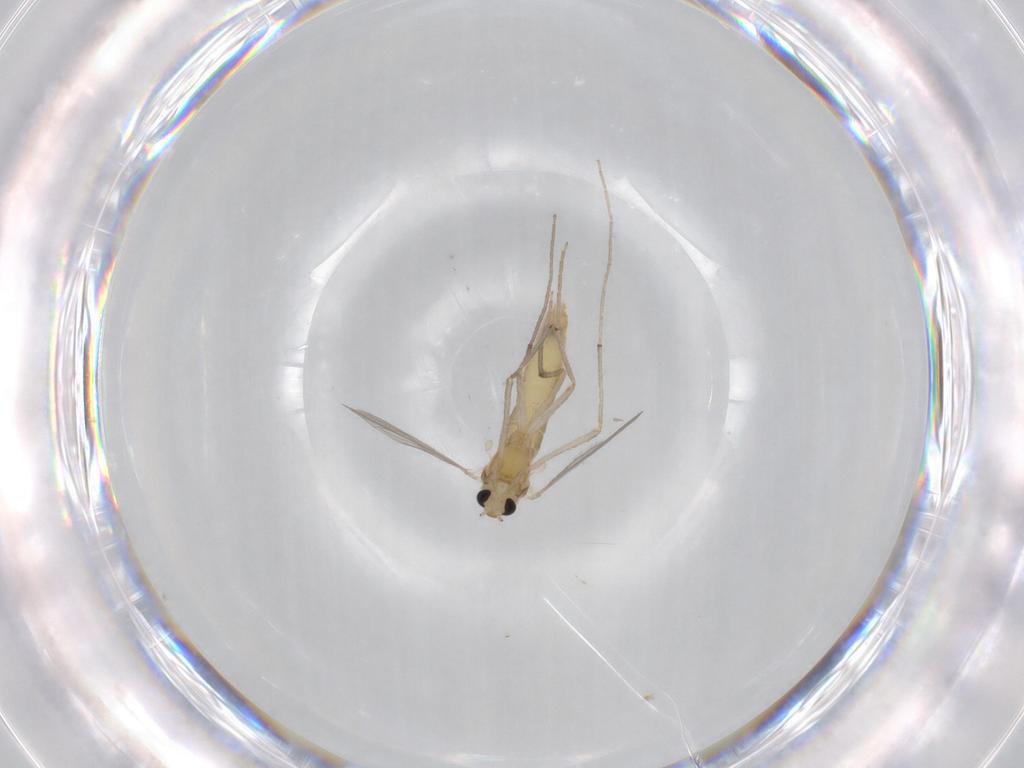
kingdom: Animalia
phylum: Arthropoda
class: Insecta
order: Diptera
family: Chironomidae
